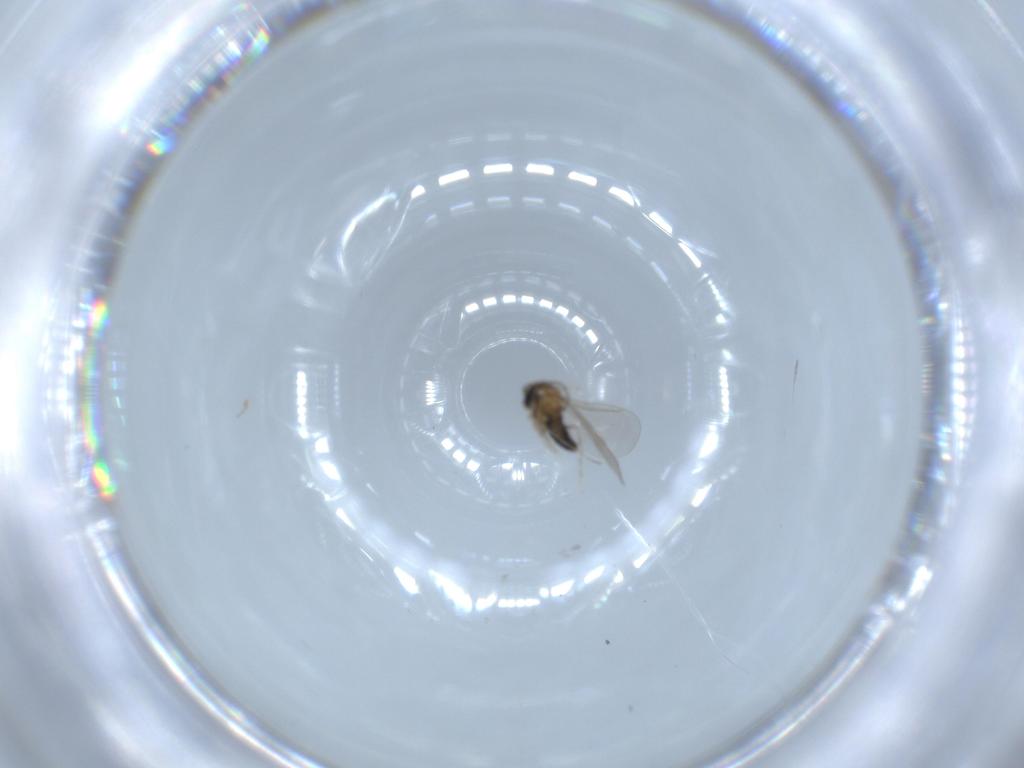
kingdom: Animalia
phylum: Arthropoda
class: Insecta
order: Diptera
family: Cecidomyiidae
